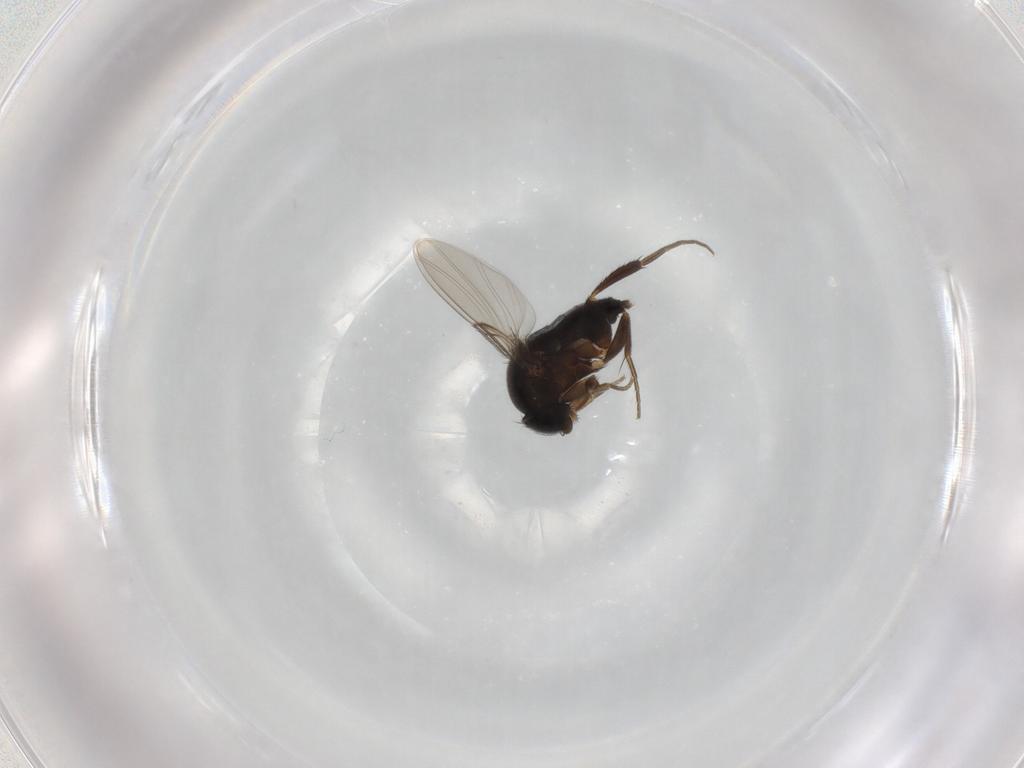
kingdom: Animalia
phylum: Arthropoda
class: Insecta
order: Diptera
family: Phoridae
